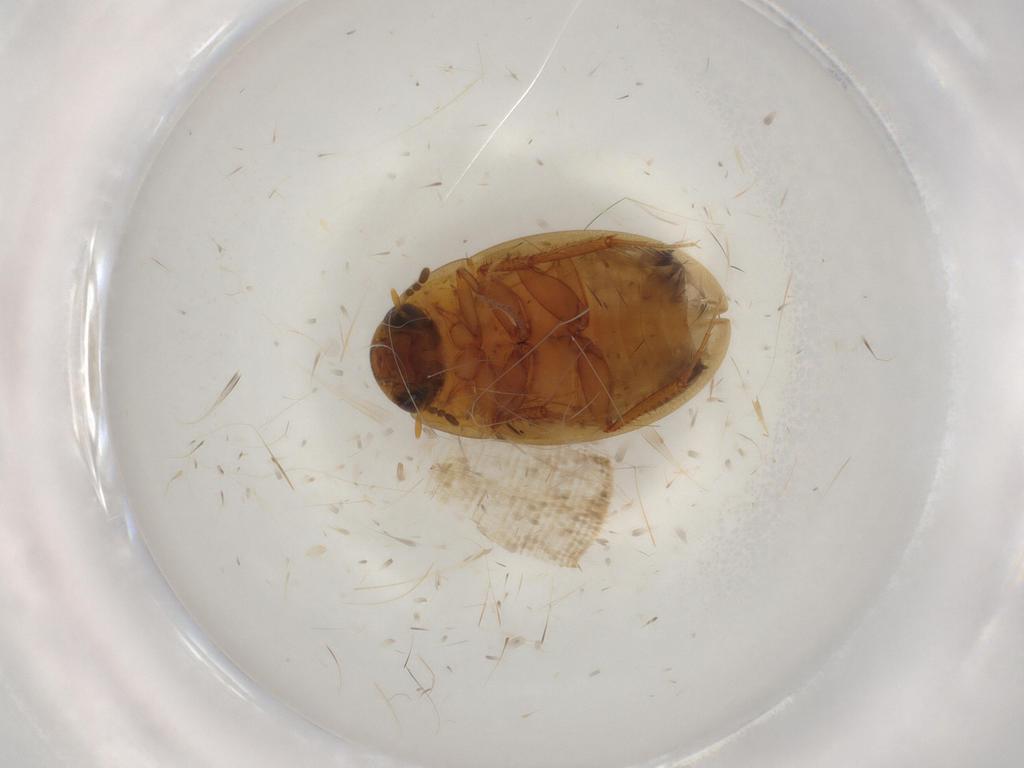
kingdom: Animalia
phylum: Arthropoda
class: Insecta
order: Coleoptera
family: Hydrophilidae
